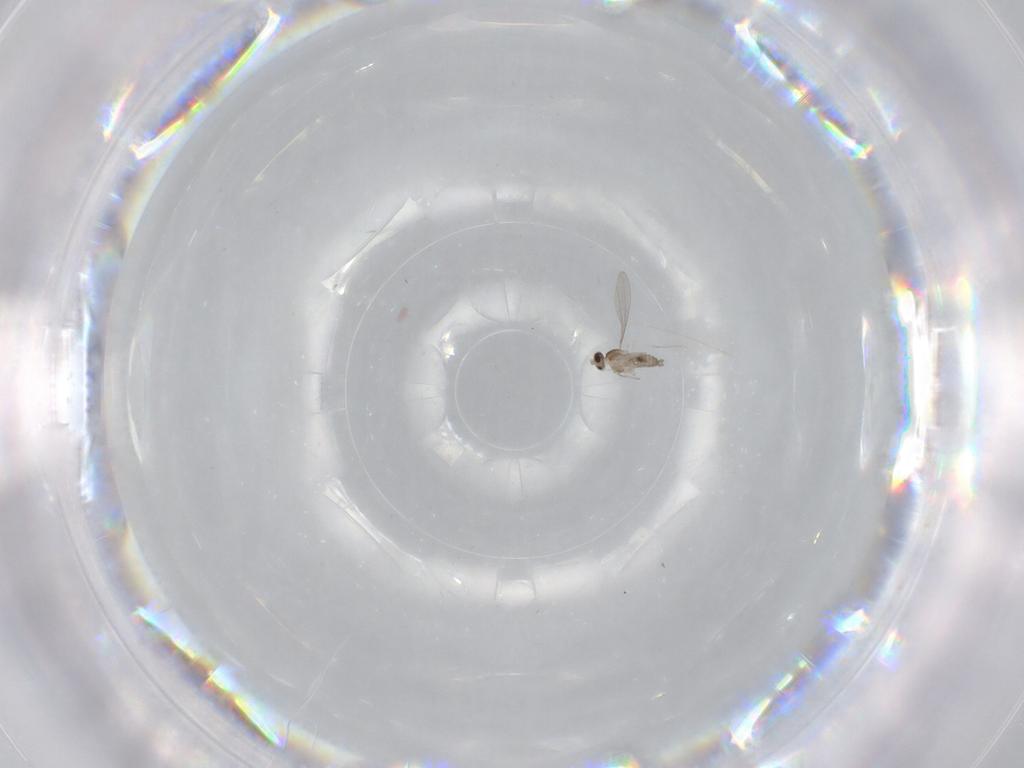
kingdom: Animalia
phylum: Arthropoda
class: Insecta
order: Diptera
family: Cecidomyiidae
